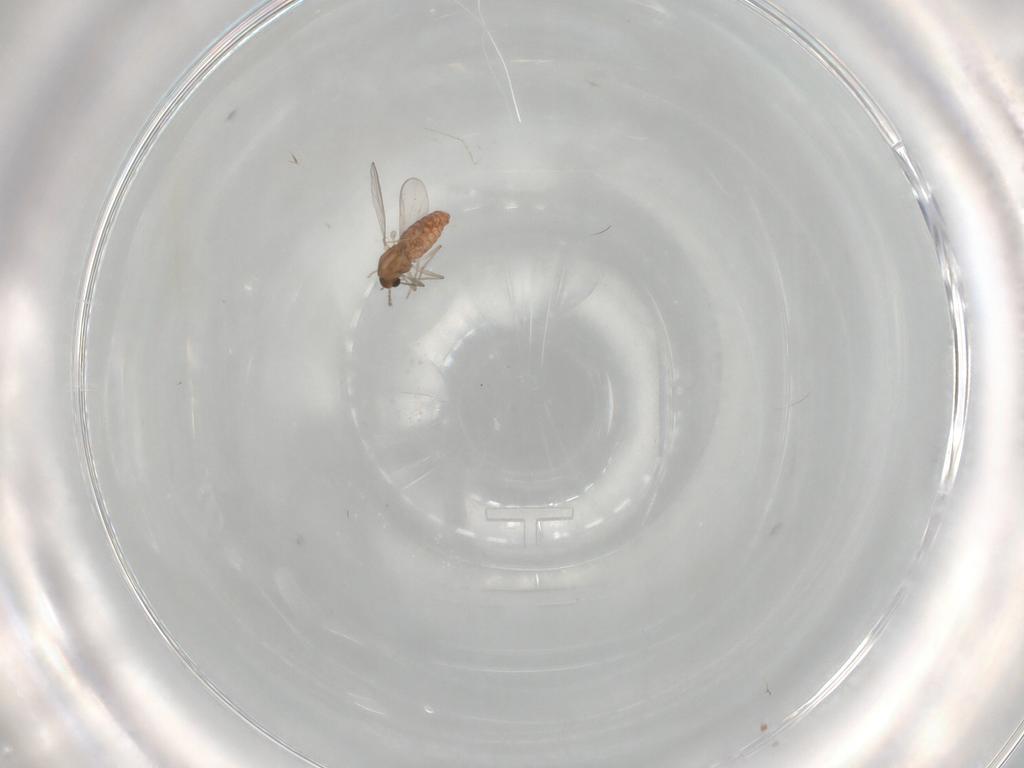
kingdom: Animalia
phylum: Arthropoda
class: Insecta
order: Diptera
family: Chironomidae
